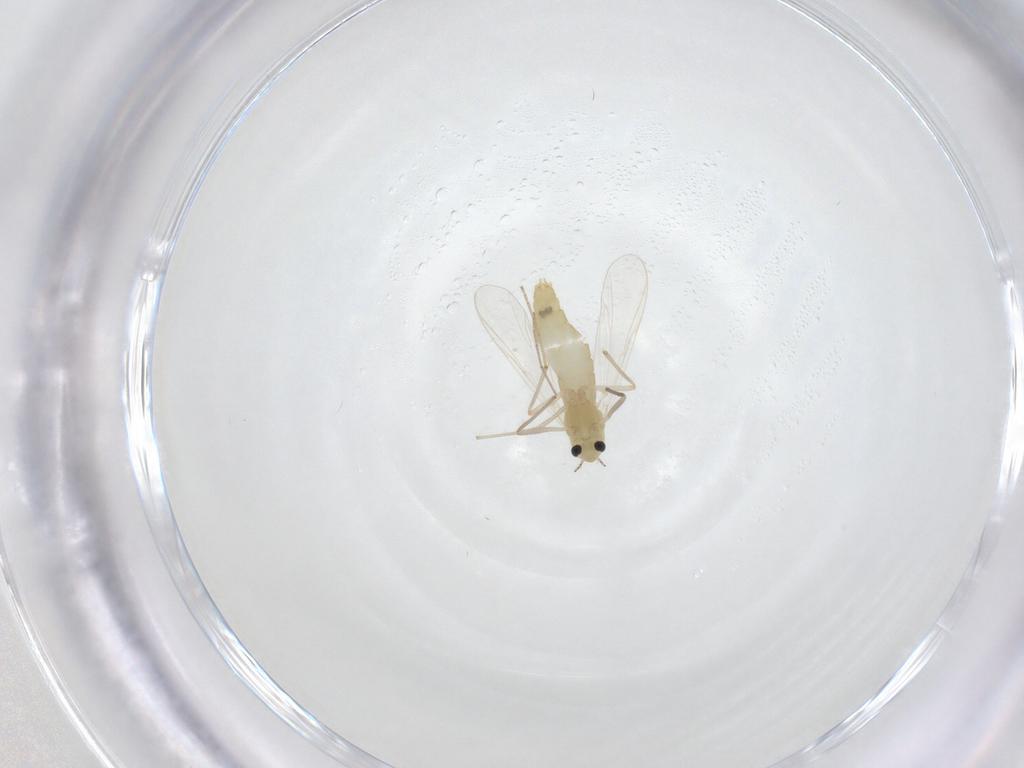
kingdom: Animalia
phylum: Arthropoda
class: Insecta
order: Diptera
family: Chironomidae
